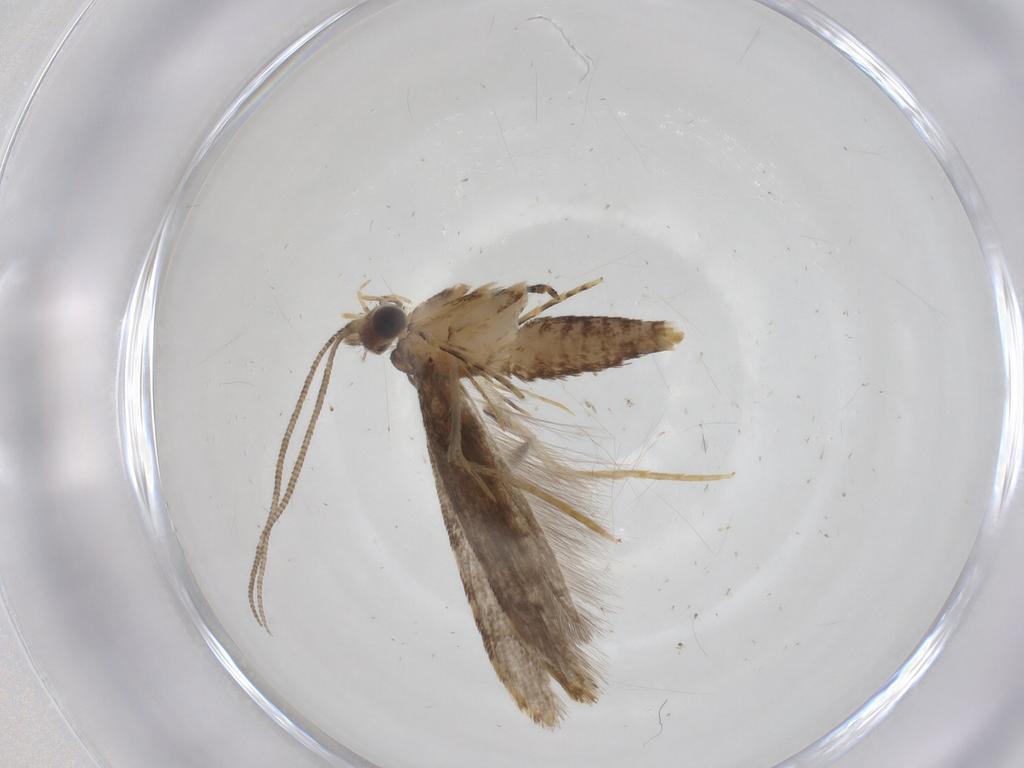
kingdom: Animalia
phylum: Arthropoda
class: Insecta
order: Lepidoptera
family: Tineidae
